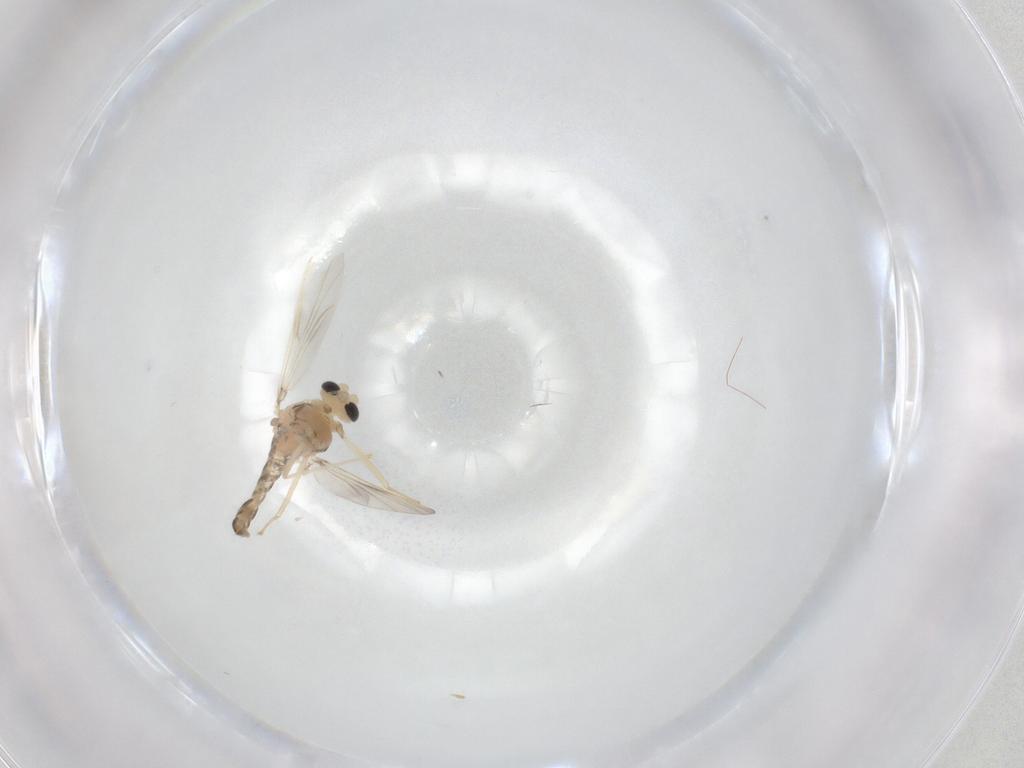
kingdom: Animalia
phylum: Arthropoda
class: Insecta
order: Diptera
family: Chironomidae
